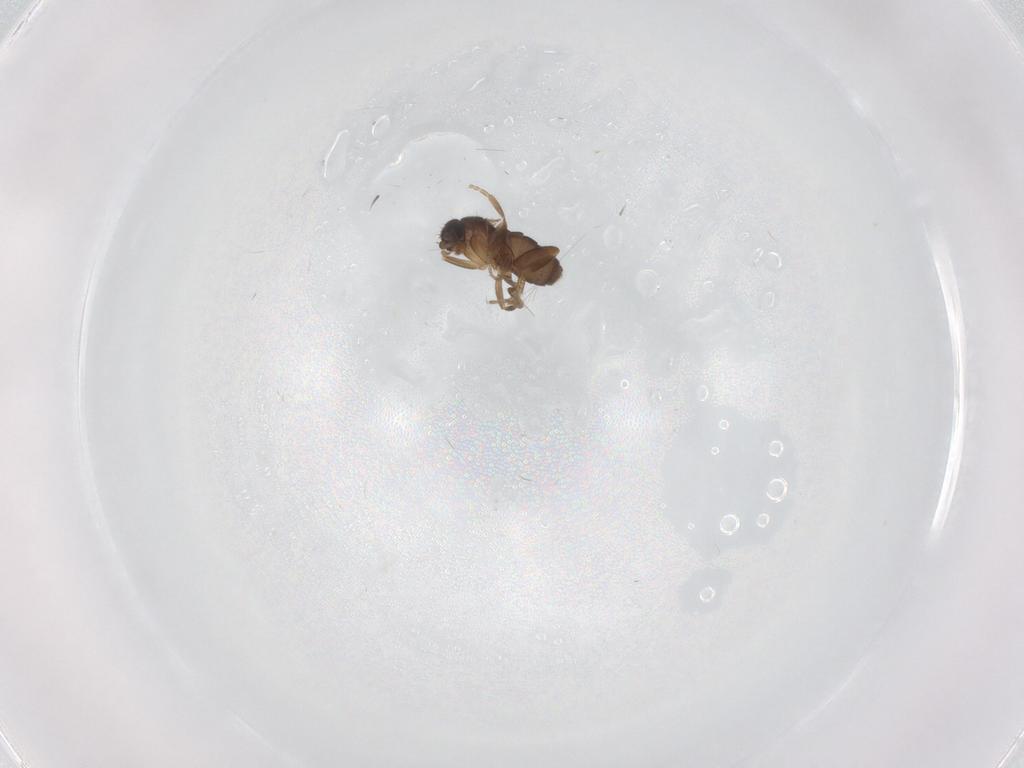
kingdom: Animalia
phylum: Arthropoda
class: Insecta
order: Diptera
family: Phoridae
